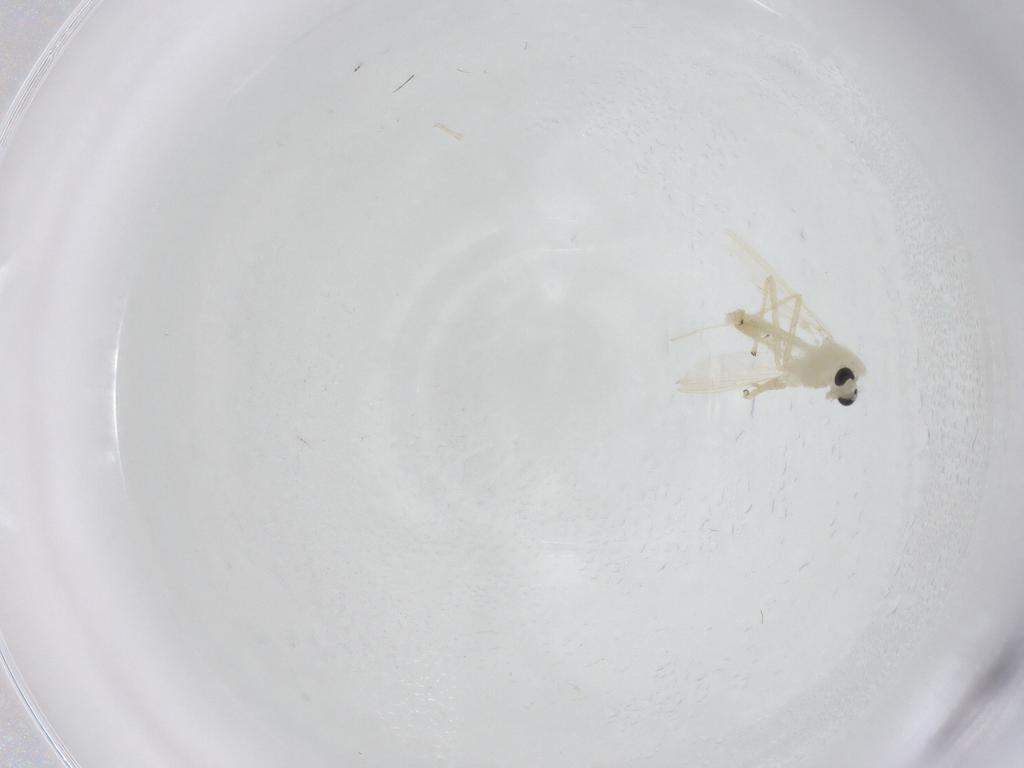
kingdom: Animalia
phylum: Arthropoda
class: Insecta
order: Diptera
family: Chironomidae
